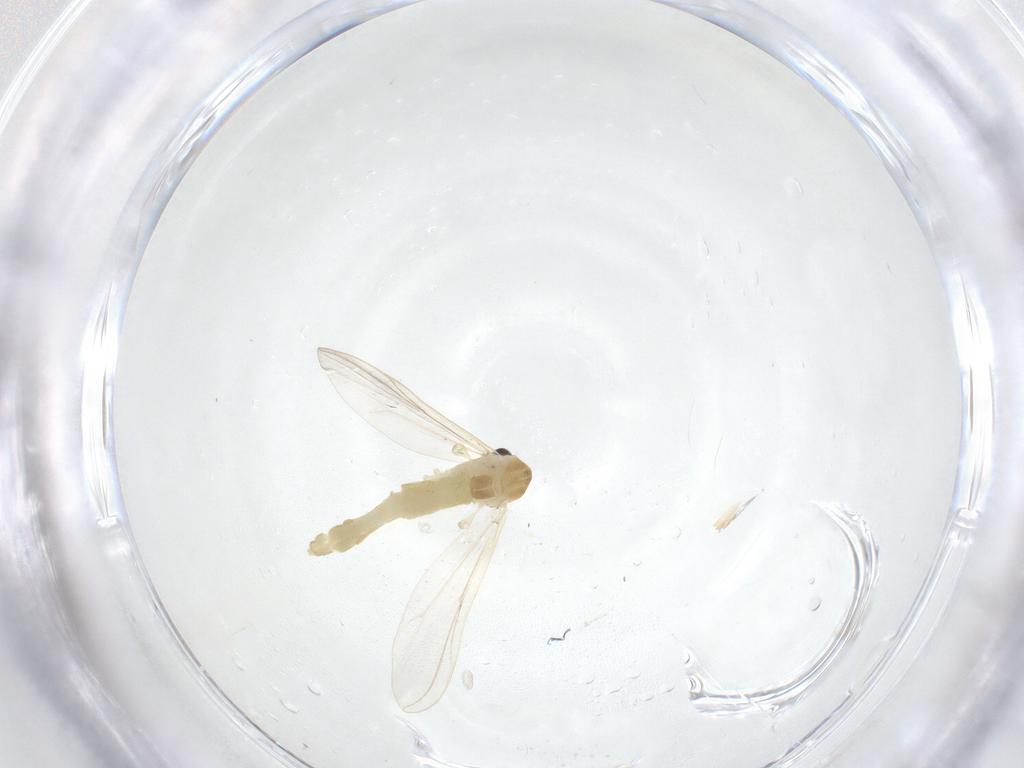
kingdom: Animalia
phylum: Arthropoda
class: Insecta
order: Diptera
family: Chironomidae
